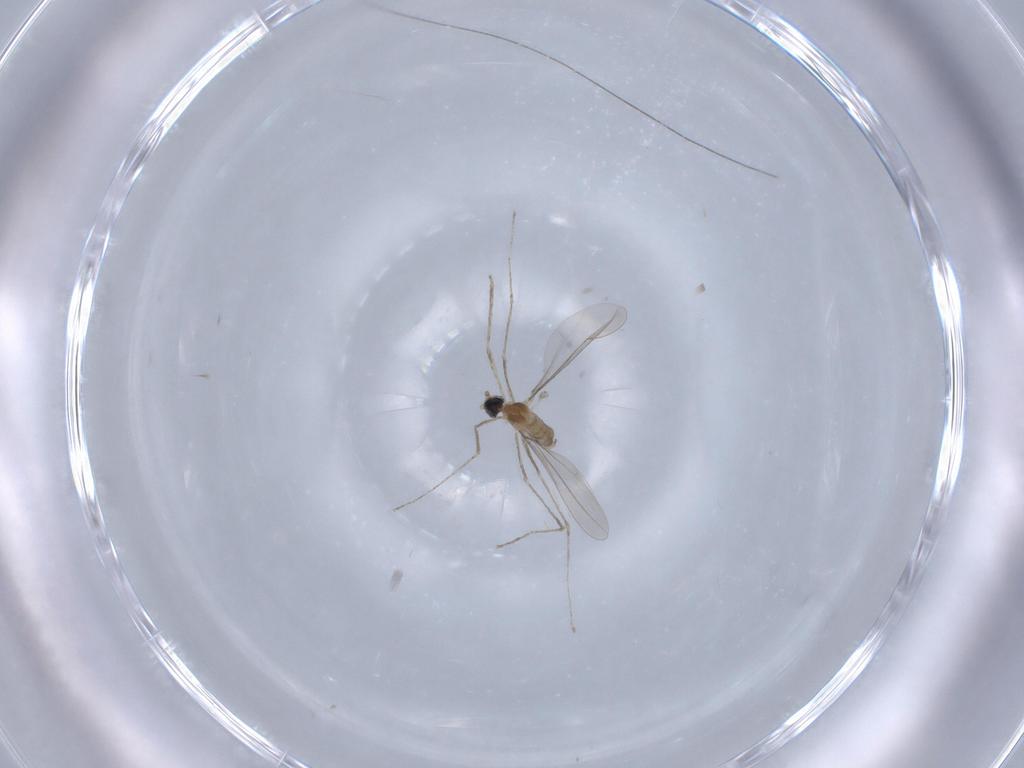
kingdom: Animalia
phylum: Arthropoda
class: Insecta
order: Diptera
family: Cecidomyiidae
